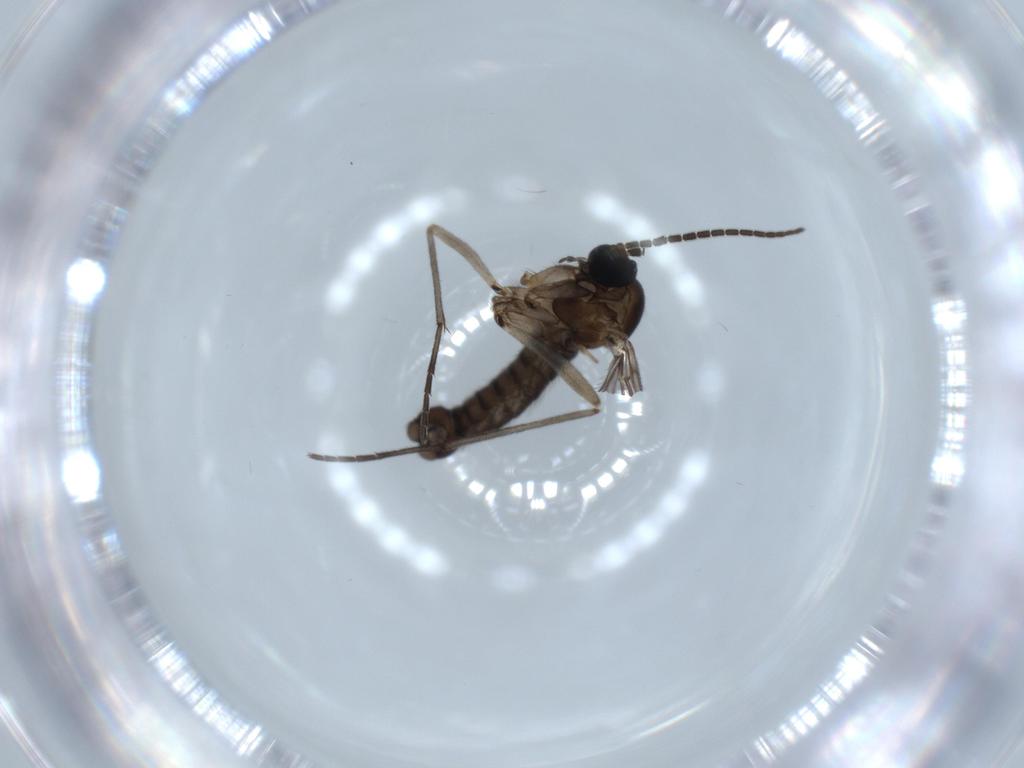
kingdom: Animalia
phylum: Arthropoda
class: Insecta
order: Diptera
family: Sciaridae
